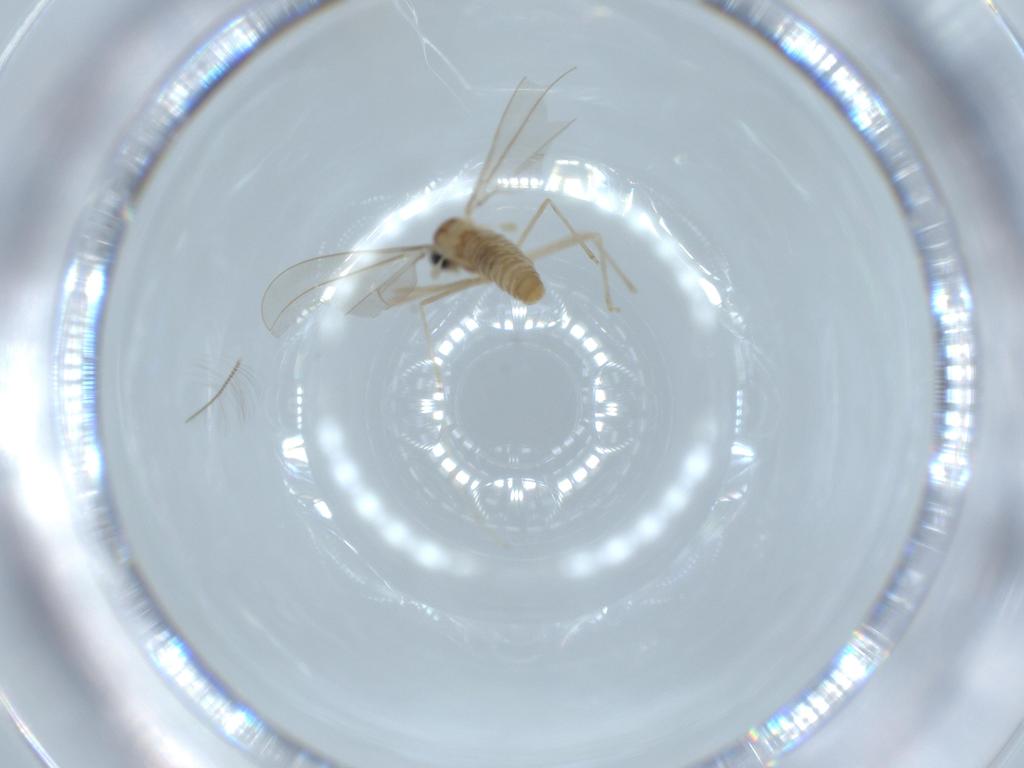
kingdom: Animalia
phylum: Arthropoda
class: Insecta
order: Diptera
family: Cecidomyiidae
